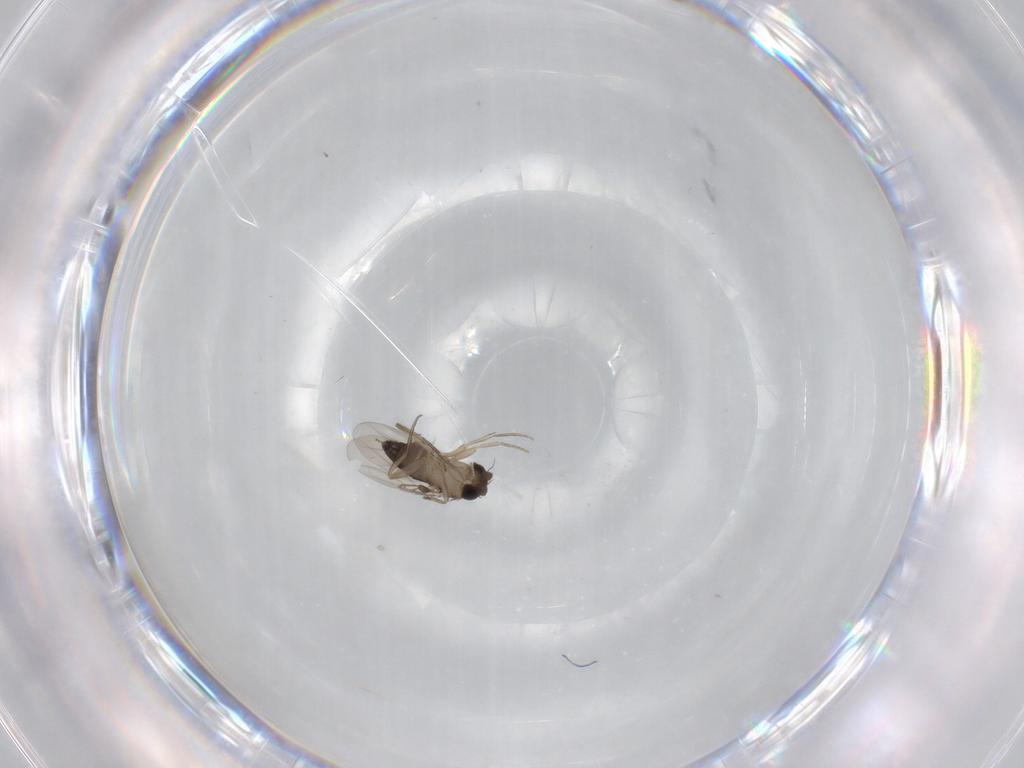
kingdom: Animalia
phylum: Arthropoda
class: Insecta
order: Diptera
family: Phoridae
